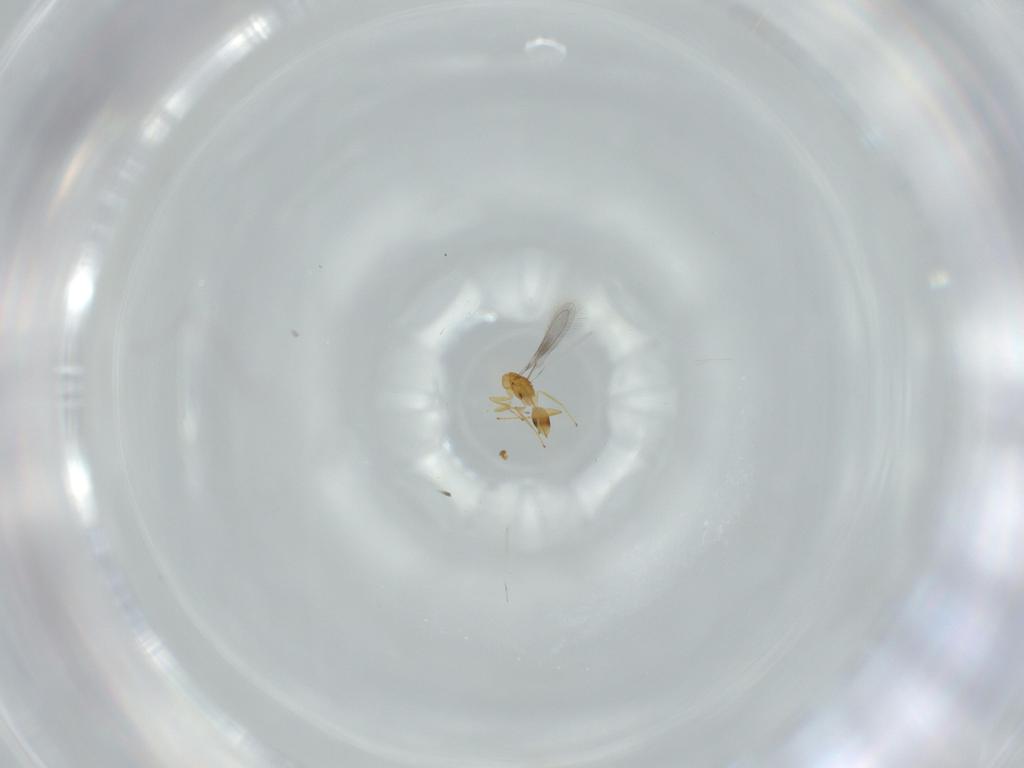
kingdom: Animalia
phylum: Arthropoda
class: Insecta
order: Hymenoptera
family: Mymaridae
